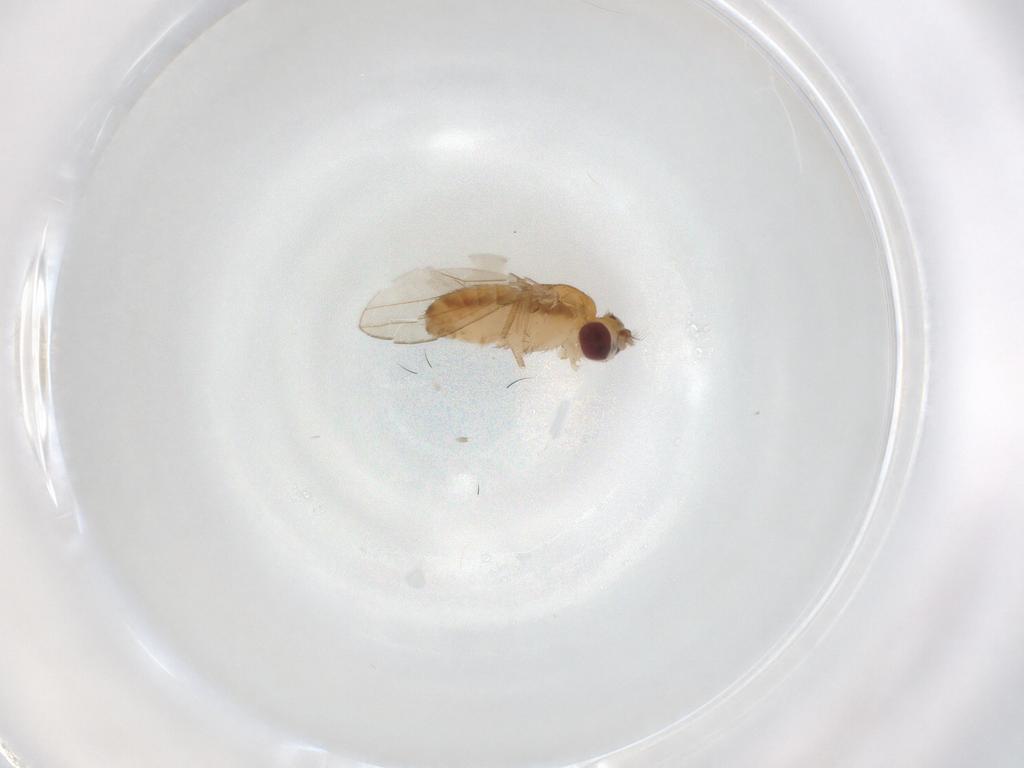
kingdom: Animalia
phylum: Arthropoda
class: Insecta
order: Diptera
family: Drosophilidae
